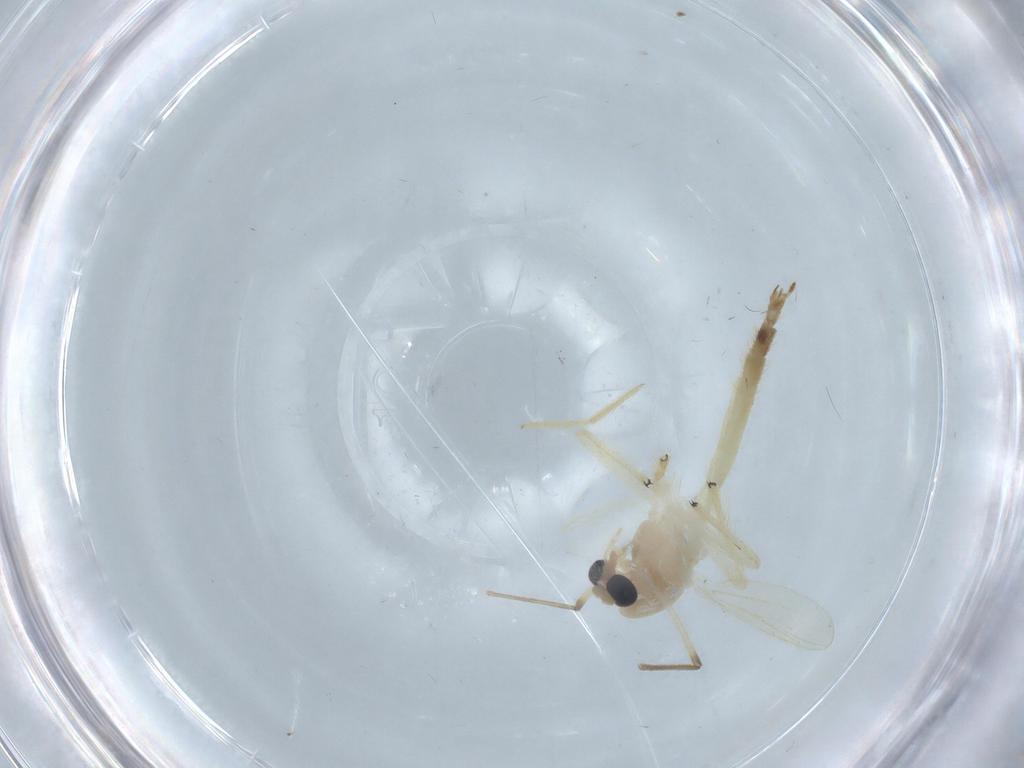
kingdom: Animalia
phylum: Arthropoda
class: Insecta
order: Diptera
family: Chironomidae
